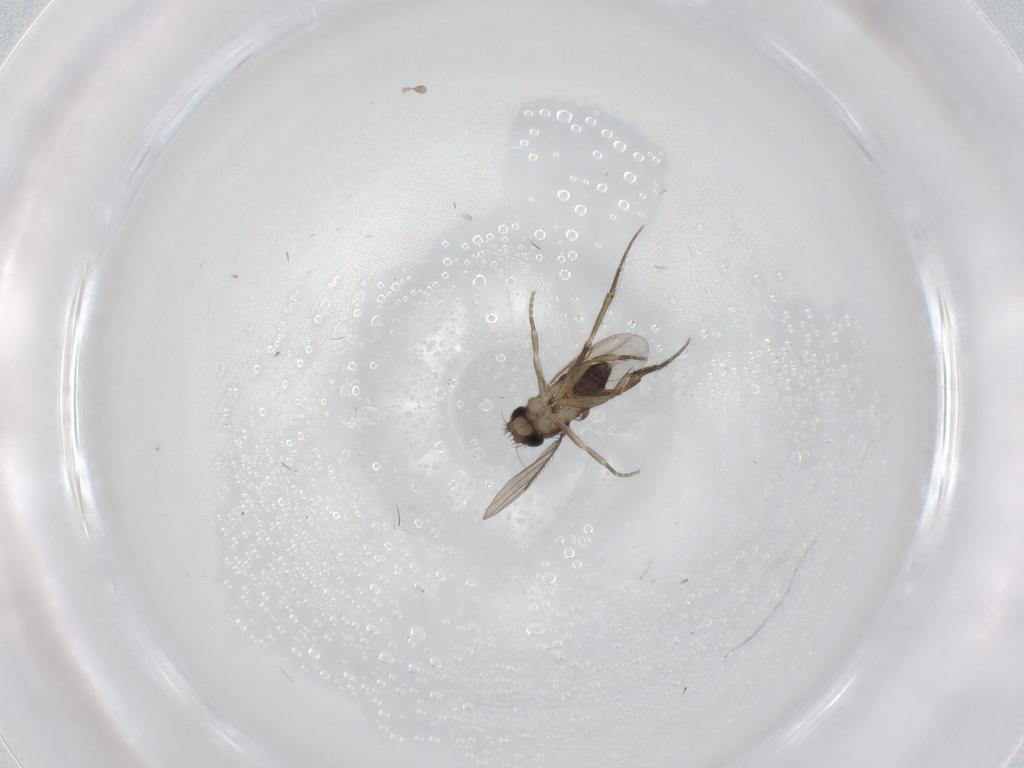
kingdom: Animalia
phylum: Arthropoda
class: Insecta
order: Diptera
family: Phoridae
